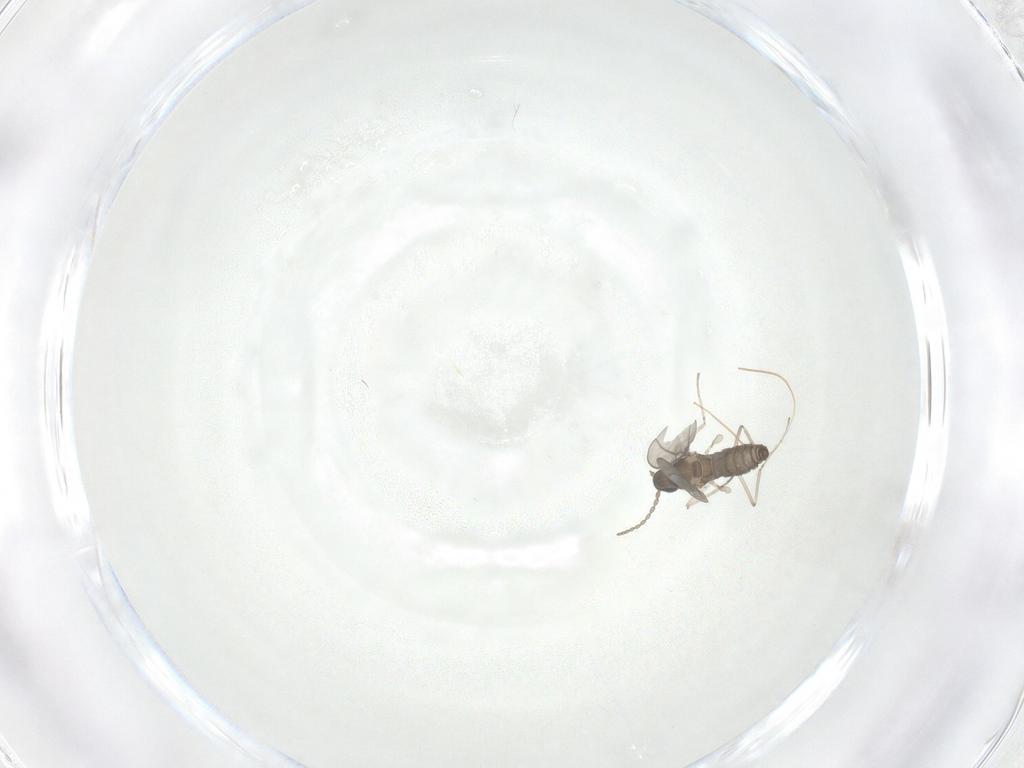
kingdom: Animalia
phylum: Arthropoda
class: Insecta
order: Diptera
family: Cecidomyiidae
